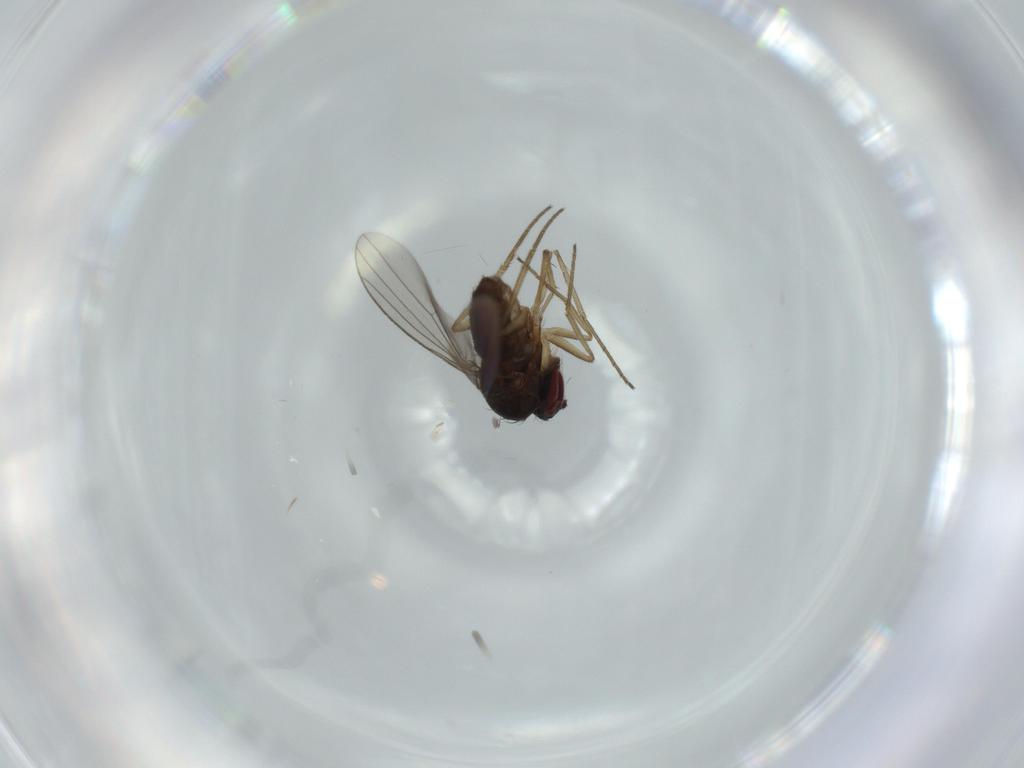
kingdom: Animalia
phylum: Arthropoda
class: Insecta
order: Diptera
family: Dolichopodidae
